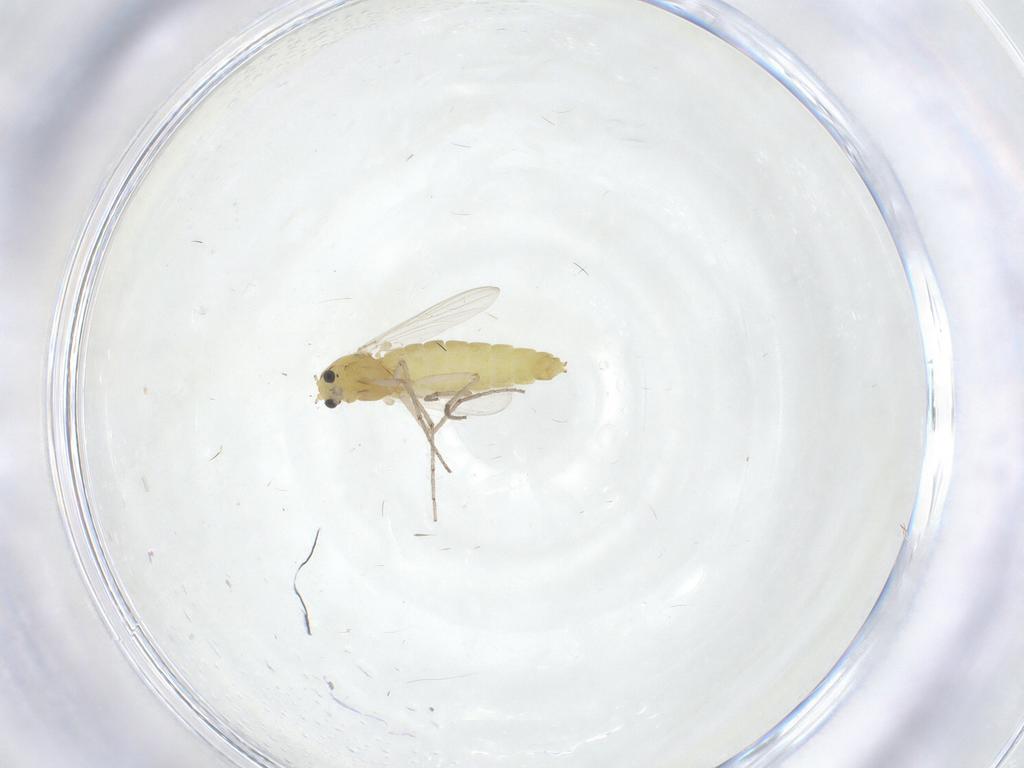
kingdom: Animalia
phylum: Arthropoda
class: Insecta
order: Diptera
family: Chironomidae
